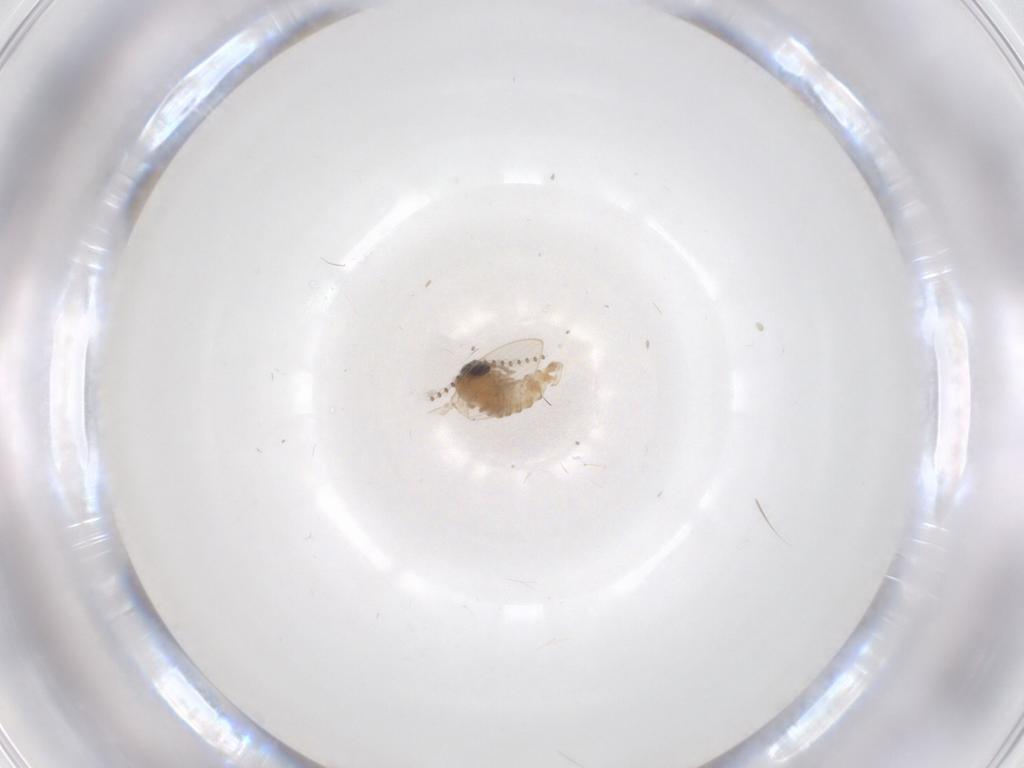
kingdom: Animalia
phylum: Arthropoda
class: Insecta
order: Diptera
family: Psychodidae
